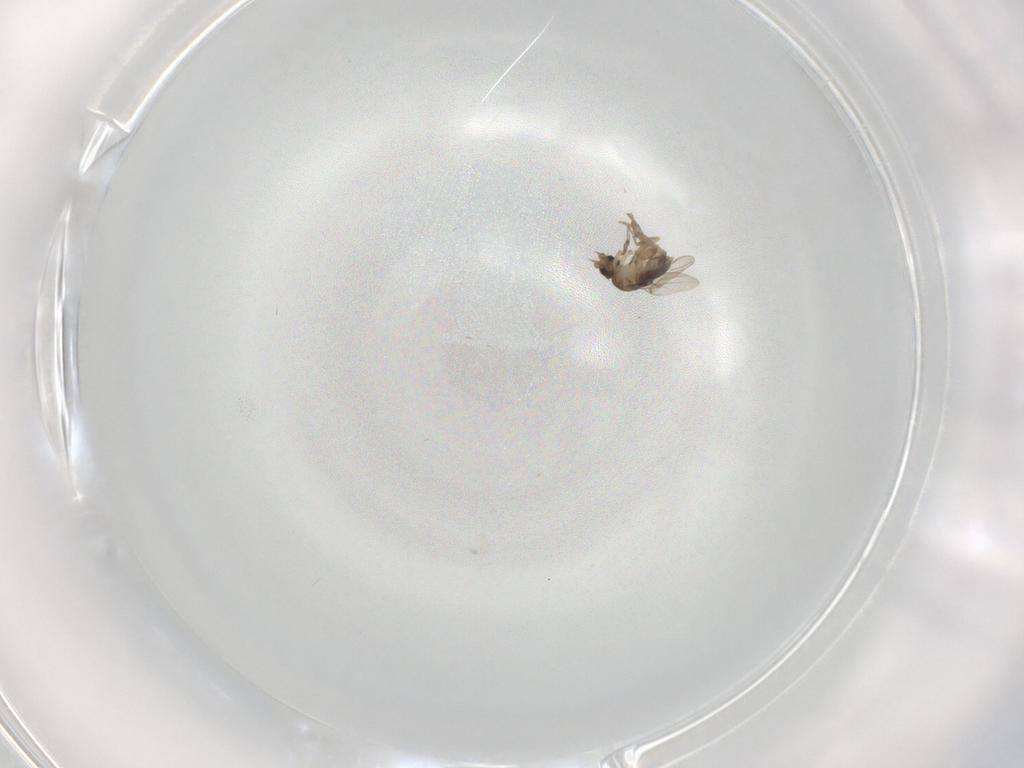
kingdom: Animalia
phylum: Arthropoda
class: Insecta
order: Diptera
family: Phoridae
